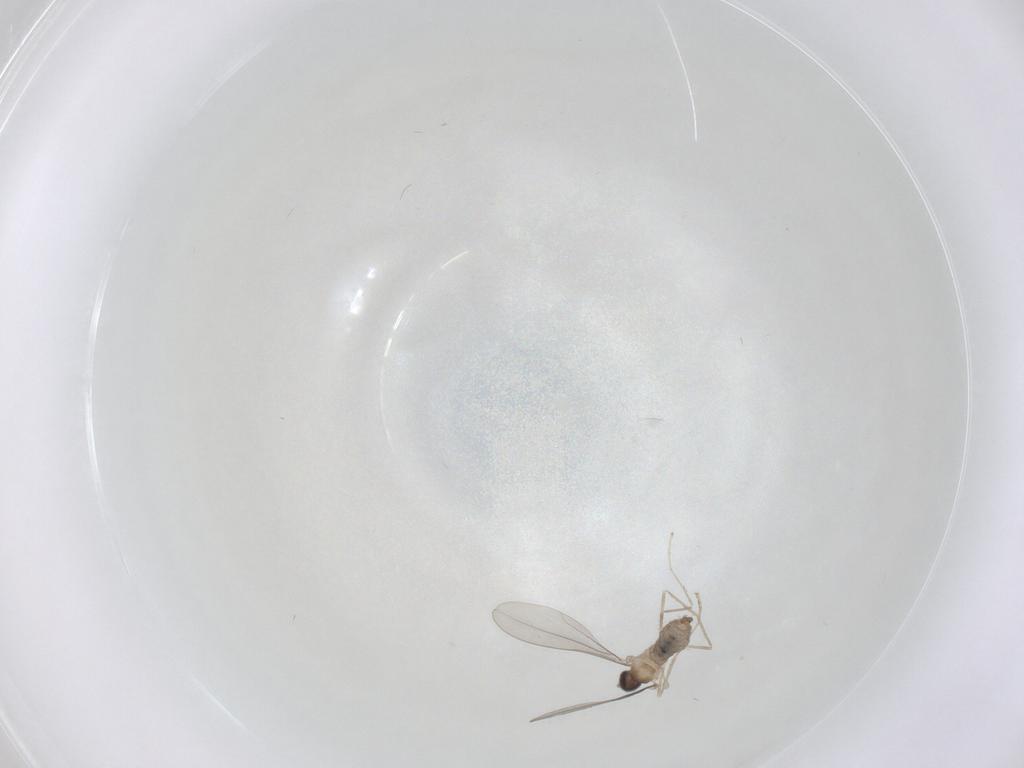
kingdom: Animalia
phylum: Arthropoda
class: Insecta
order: Diptera
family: Cecidomyiidae
